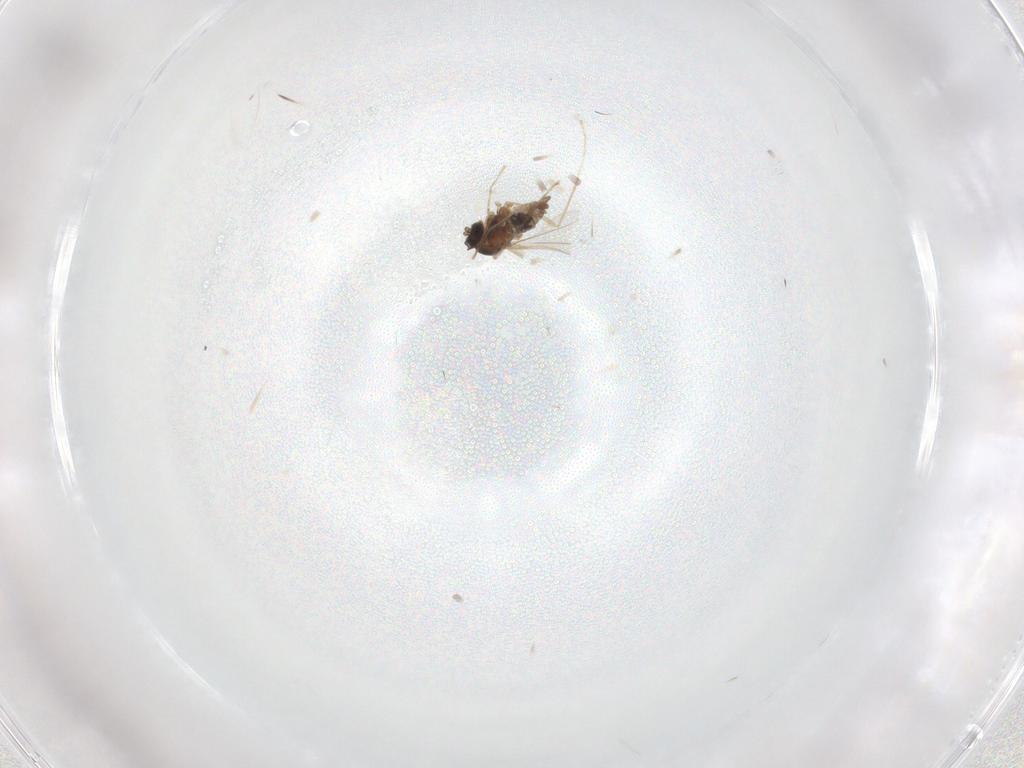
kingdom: Animalia
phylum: Arthropoda
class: Insecta
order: Diptera
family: Cecidomyiidae
